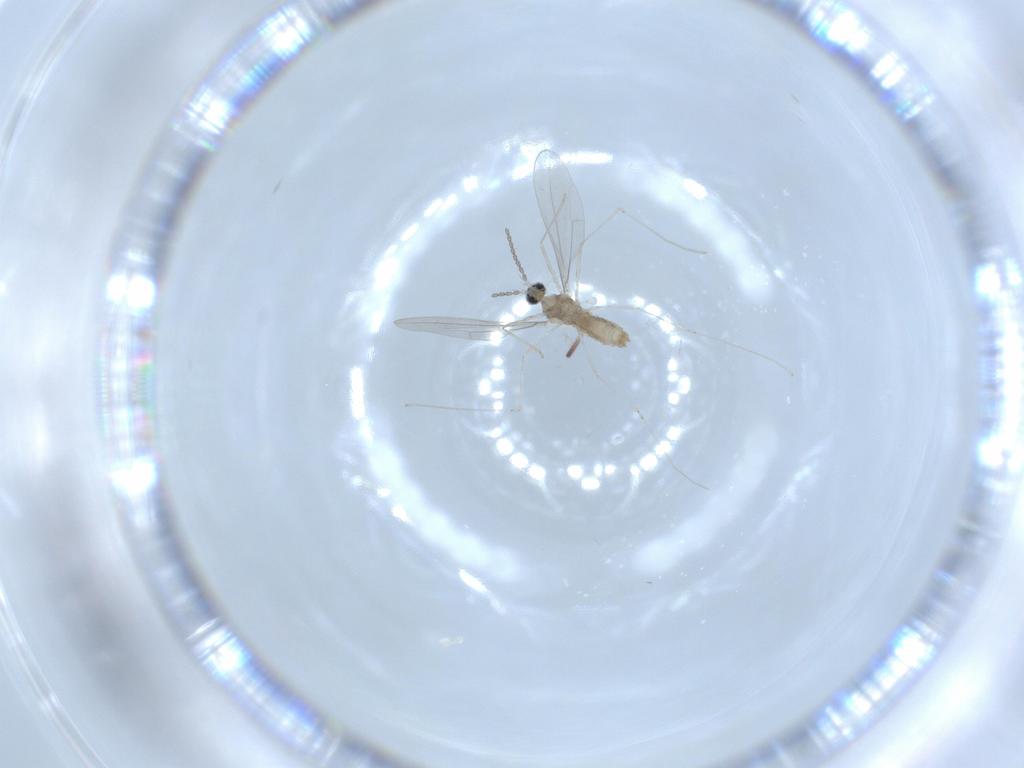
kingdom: Animalia
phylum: Arthropoda
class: Insecta
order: Diptera
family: Cecidomyiidae
